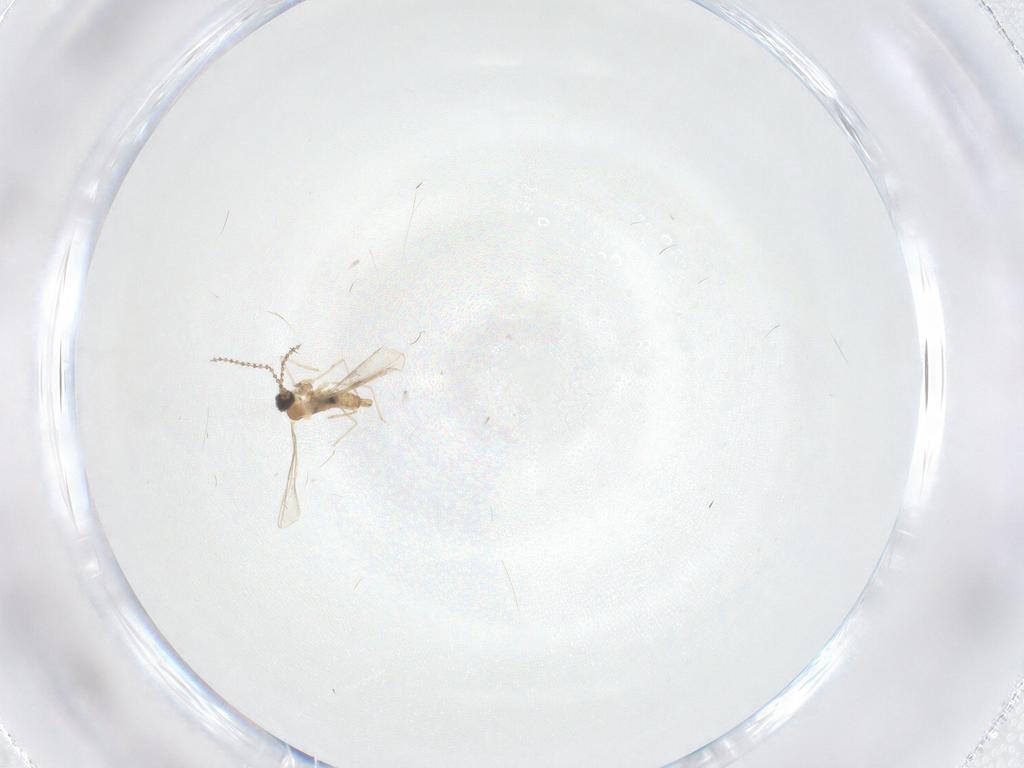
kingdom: Animalia
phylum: Arthropoda
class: Insecta
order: Diptera
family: Psychodidae
